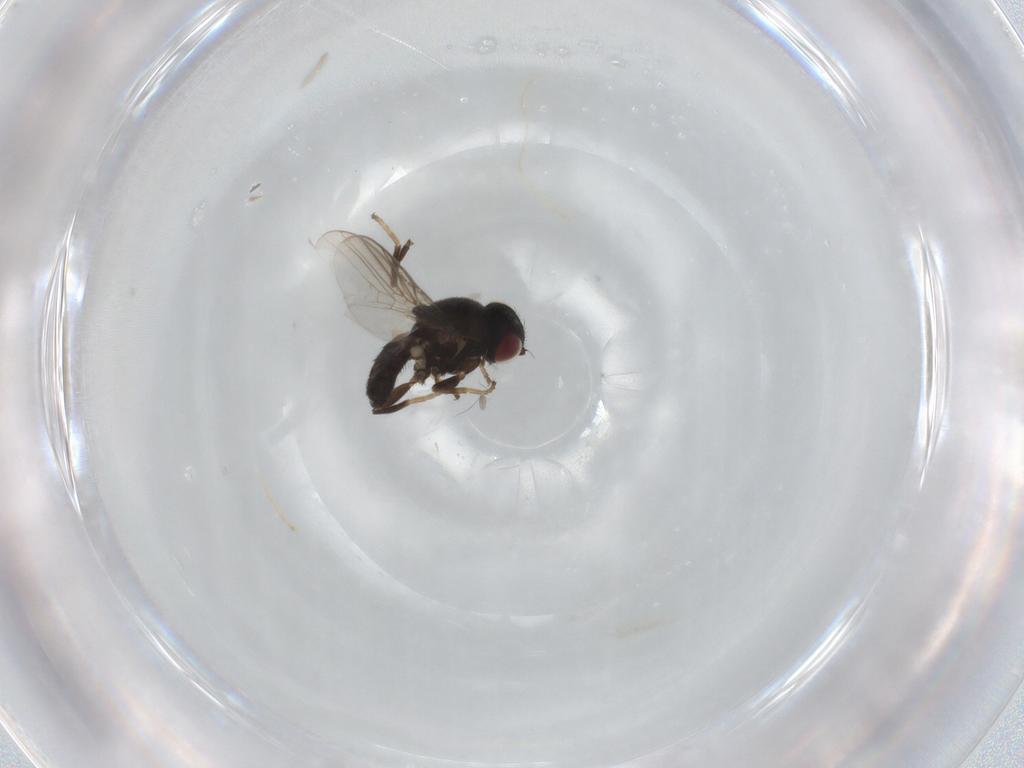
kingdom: Animalia
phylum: Arthropoda
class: Insecta
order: Diptera
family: Chloropidae
